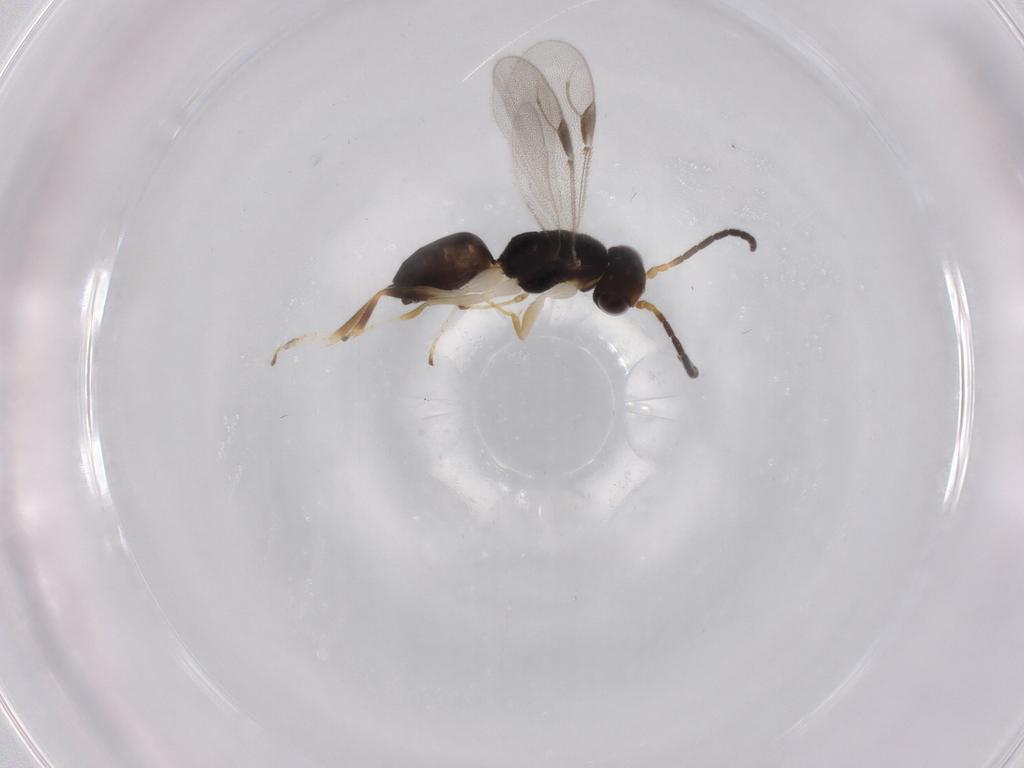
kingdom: Animalia
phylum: Arthropoda
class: Insecta
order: Hymenoptera
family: Dryinidae
